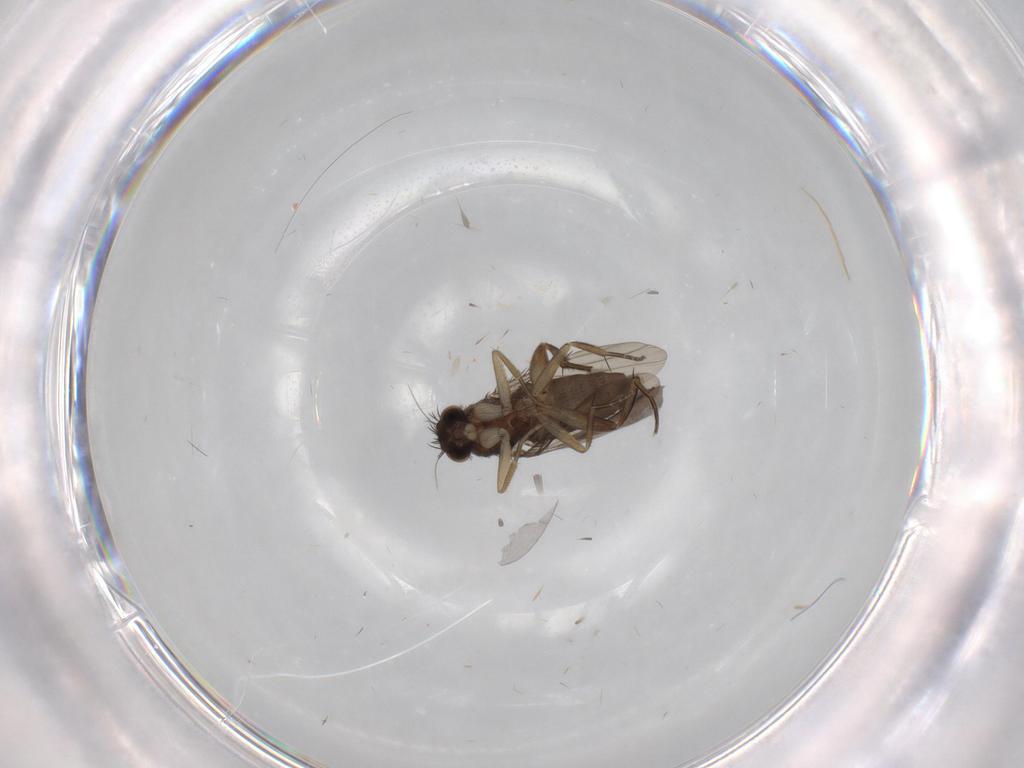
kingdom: Animalia
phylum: Arthropoda
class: Insecta
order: Diptera
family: Phoridae
